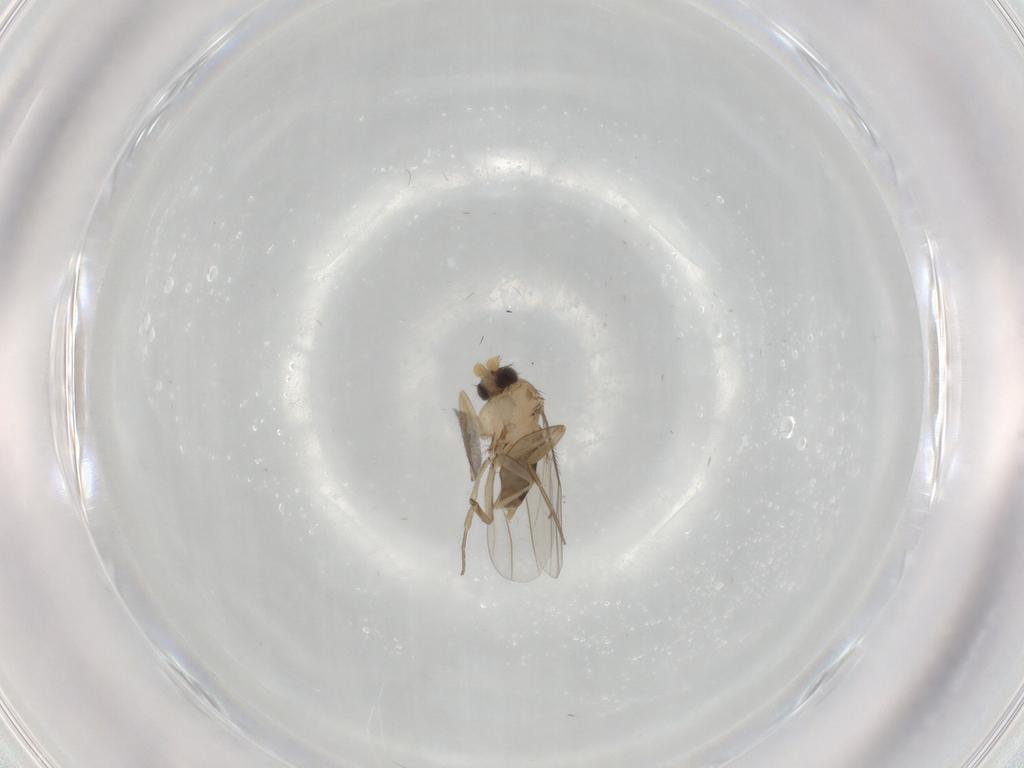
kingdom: Animalia
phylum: Arthropoda
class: Insecta
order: Diptera
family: Phoridae
